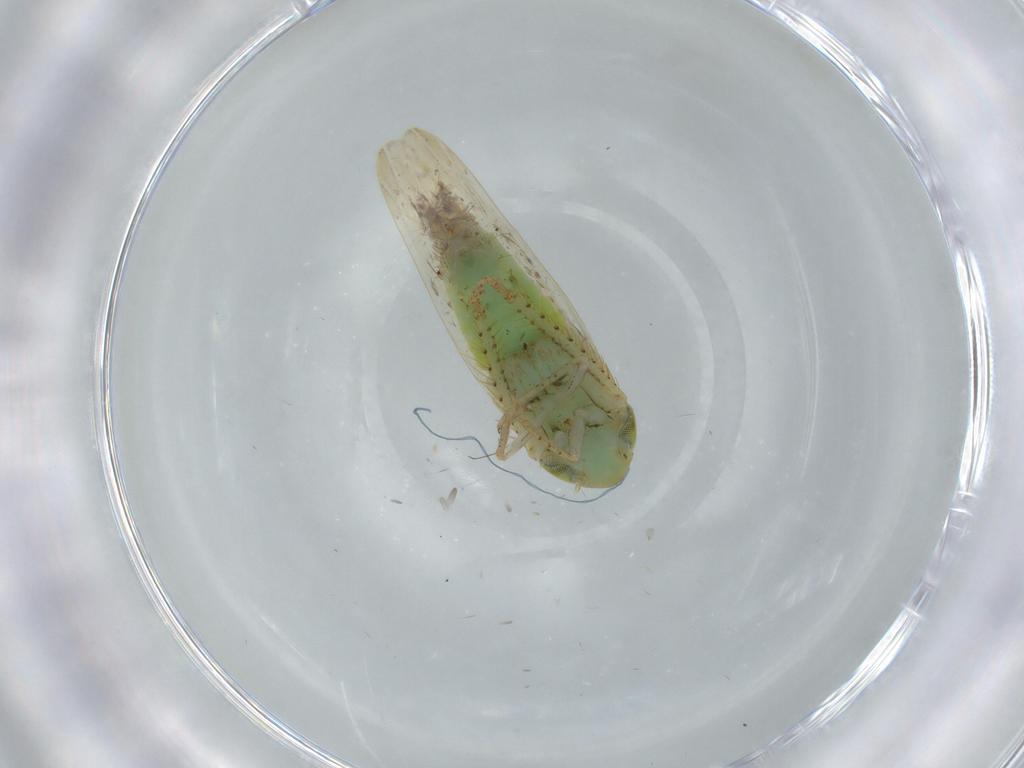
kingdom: Animalia
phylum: Arthropoda
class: Insecta
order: Hemiptera
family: Cicadellidae
